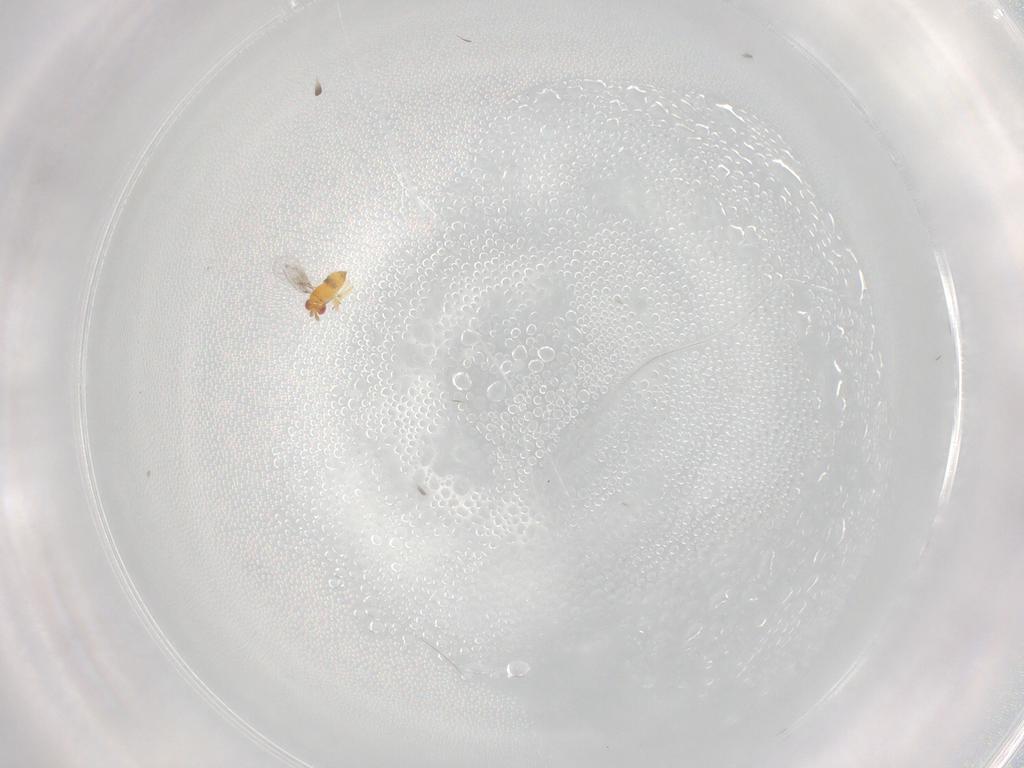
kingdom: Animalia
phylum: Arthropoda
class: Insecta
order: Hymenoptera
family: Trichogrammatidae
